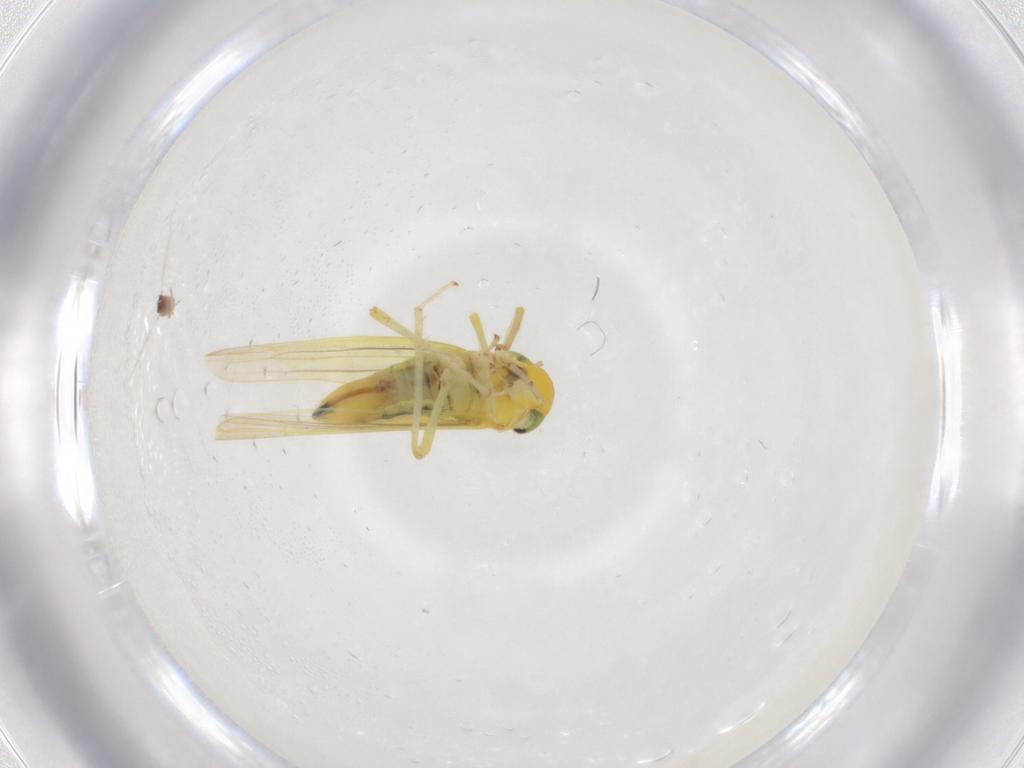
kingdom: Animalia
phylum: Arthropoda
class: Insecta
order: Hemiptera
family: Cicadellidae
